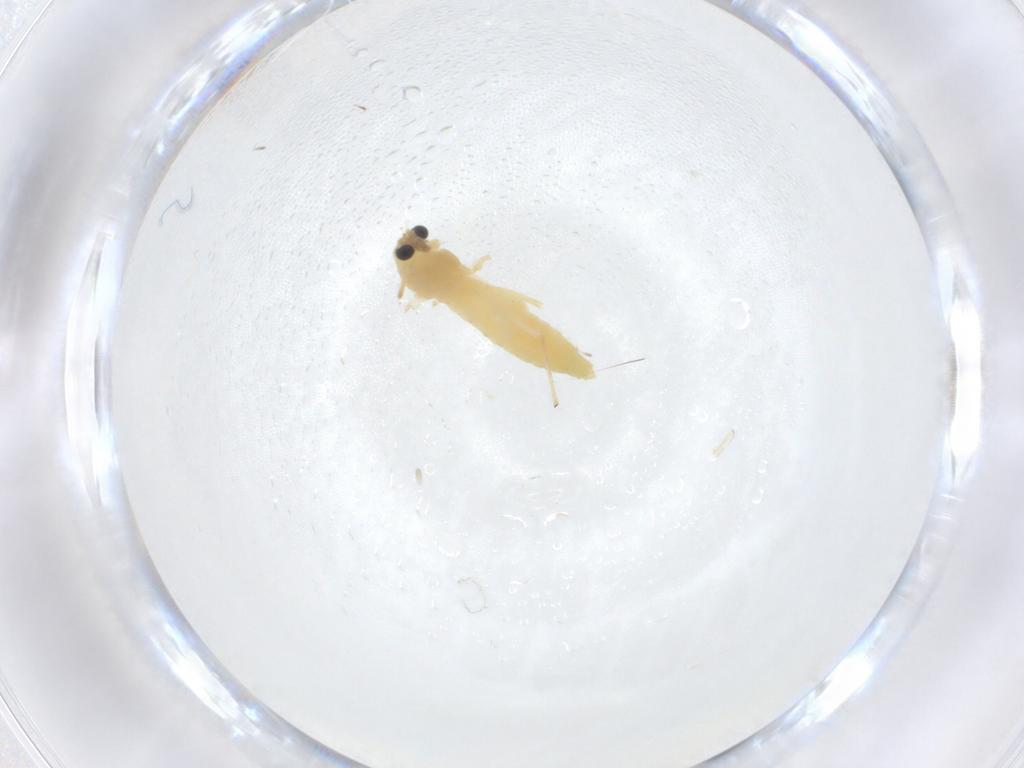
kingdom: Animalia
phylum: Arthropoda
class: Insecta
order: Diptera
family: Chironomidae
